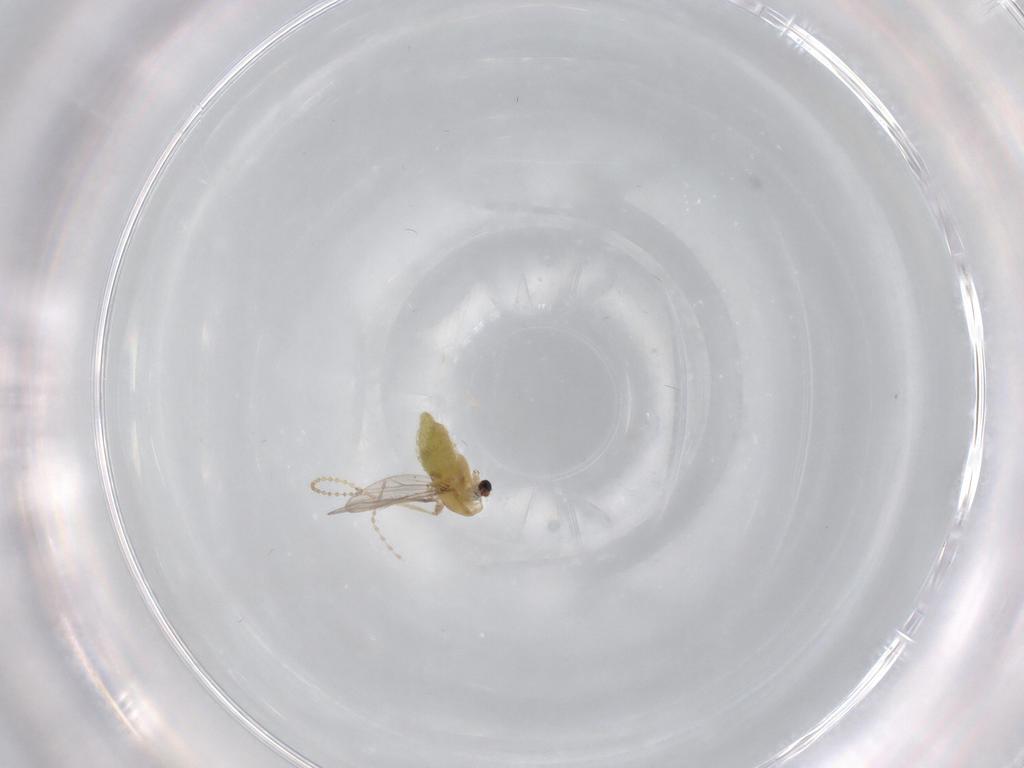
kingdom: Animalia
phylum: Arthropoda
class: Insecta
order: Diptera
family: Chironomidae
